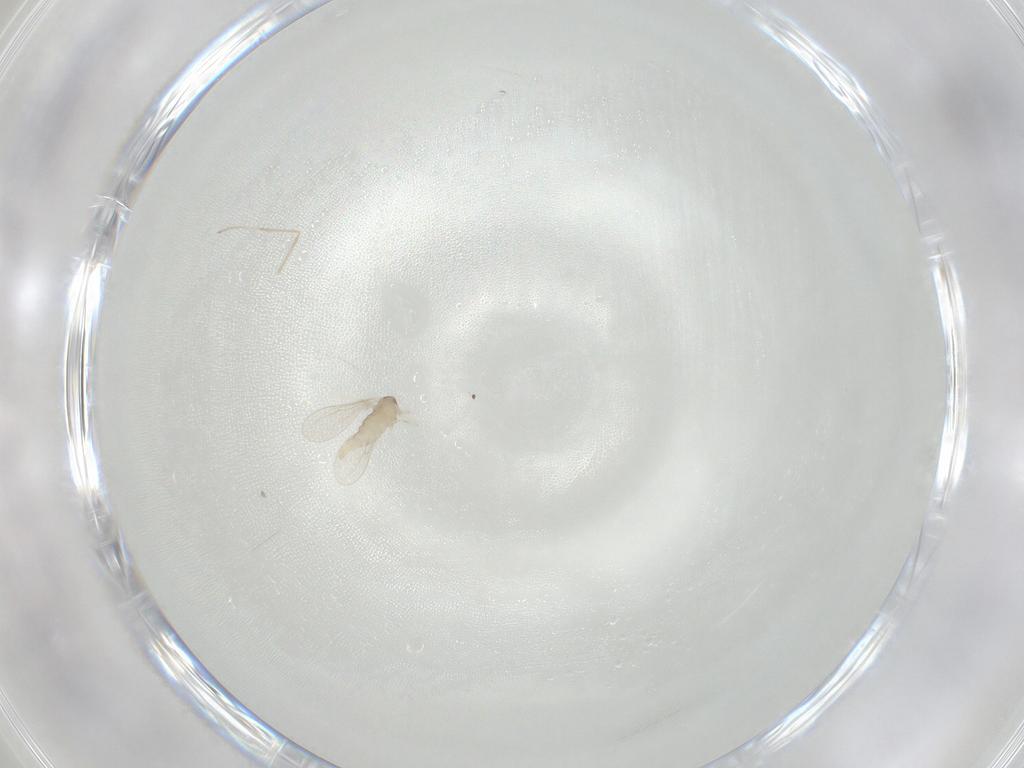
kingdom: Animalia
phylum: Arthropoda
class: Insecta
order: Diptera
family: Cecidomyiidae
